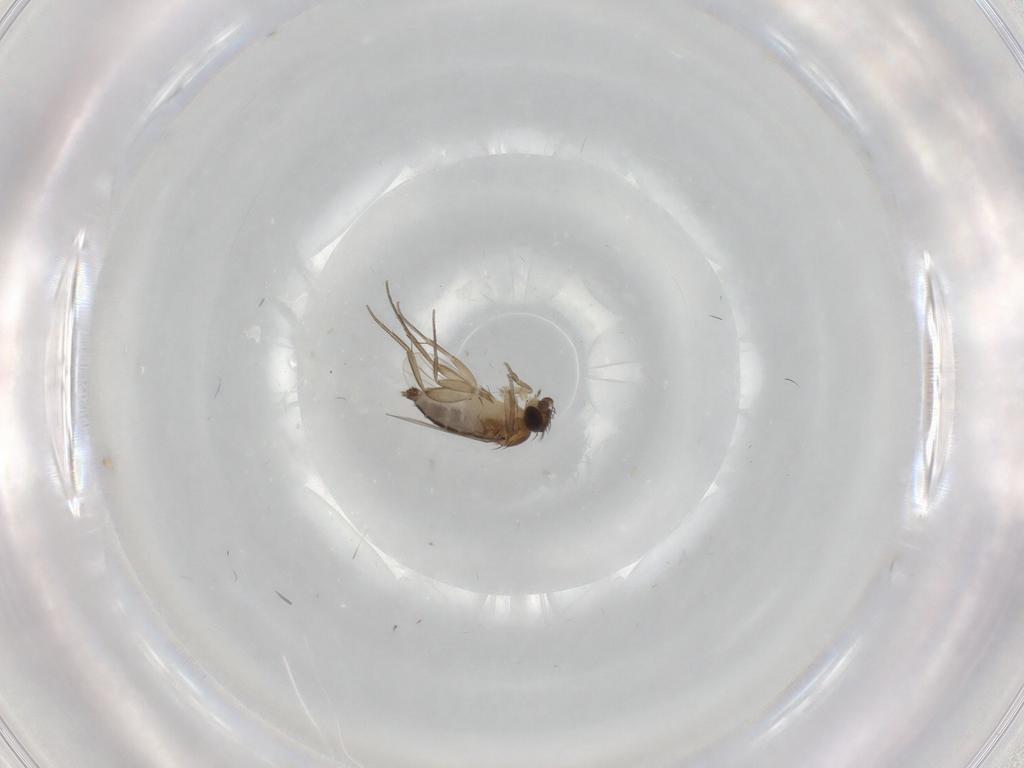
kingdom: Animalia
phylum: Arthropoda
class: Insecta
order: Diptera
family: Phoridae
